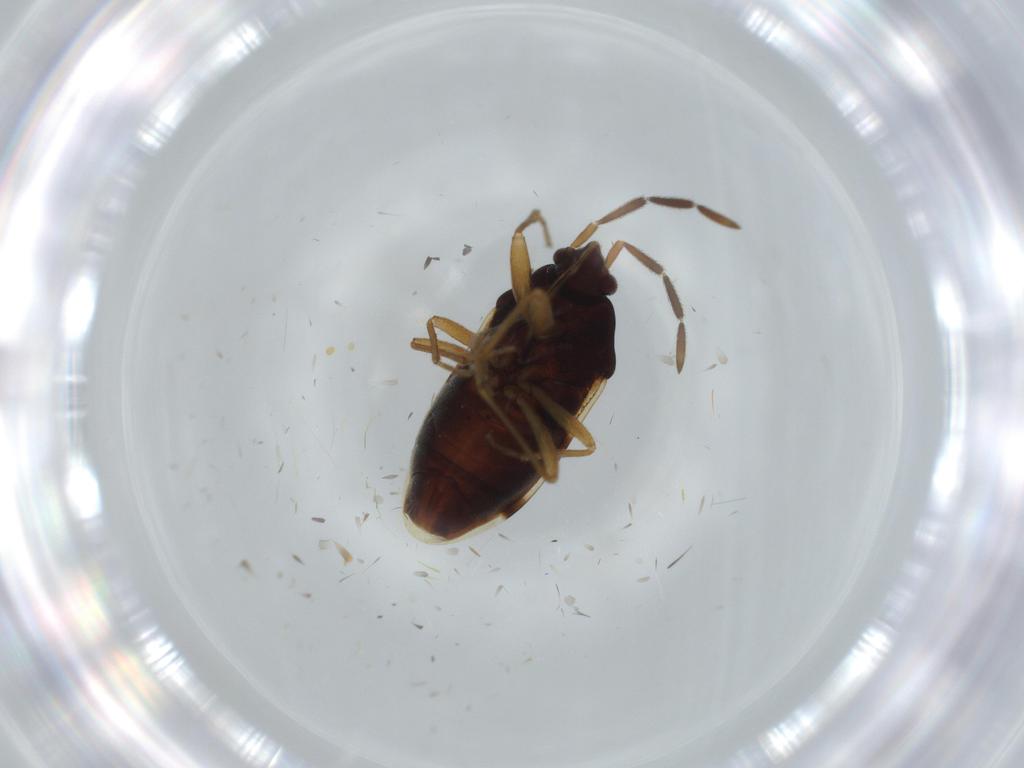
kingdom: Animalia
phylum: Arthropoda
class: Insecta
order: Hemiptera
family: Rhyparochromidae
